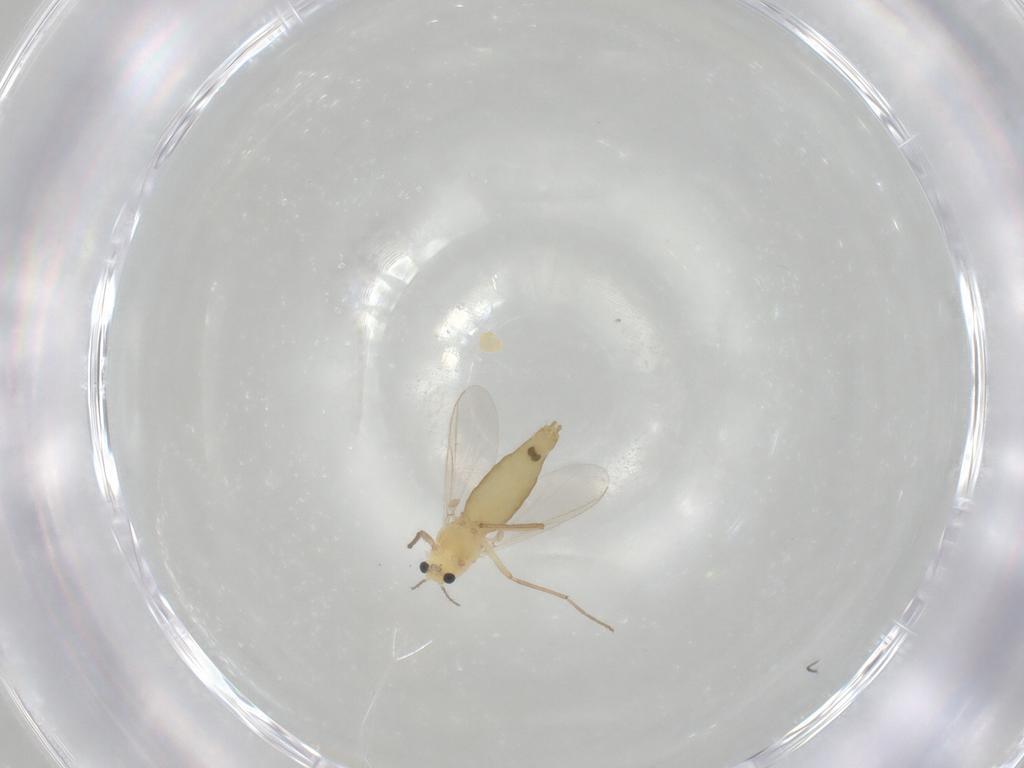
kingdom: Animalia
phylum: Arthropoda
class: Insecta
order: Diptera
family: Chironomidae
